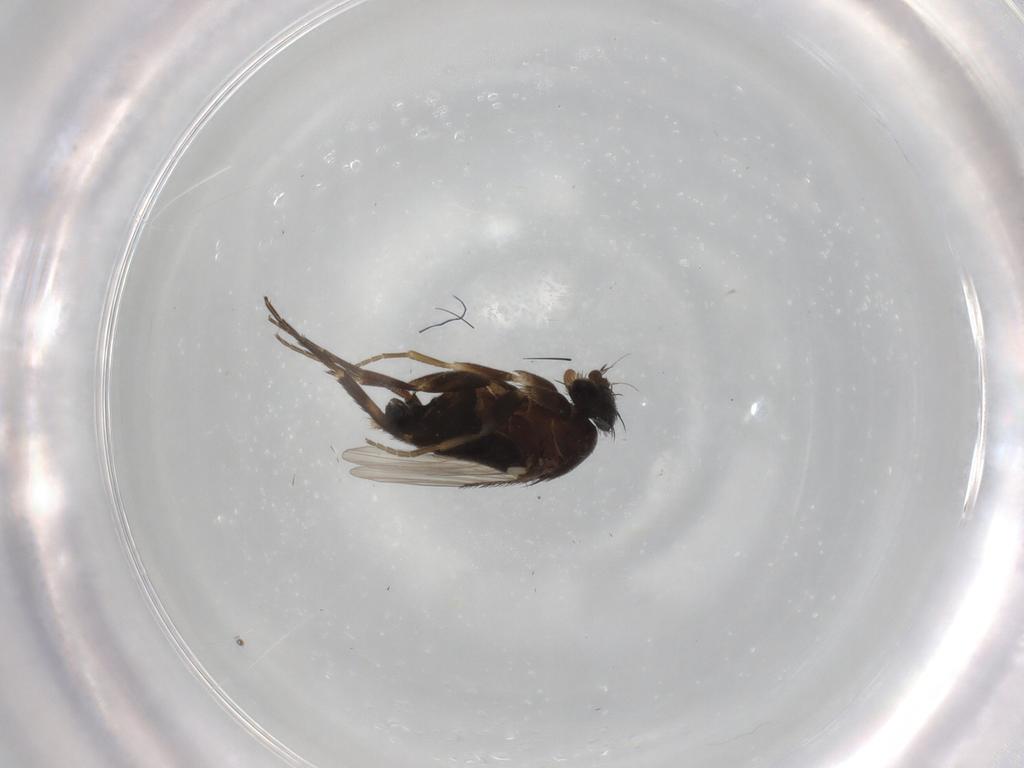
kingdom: Animalia
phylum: Arthropoda
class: Insecta
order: Diptera
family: Phoridae
